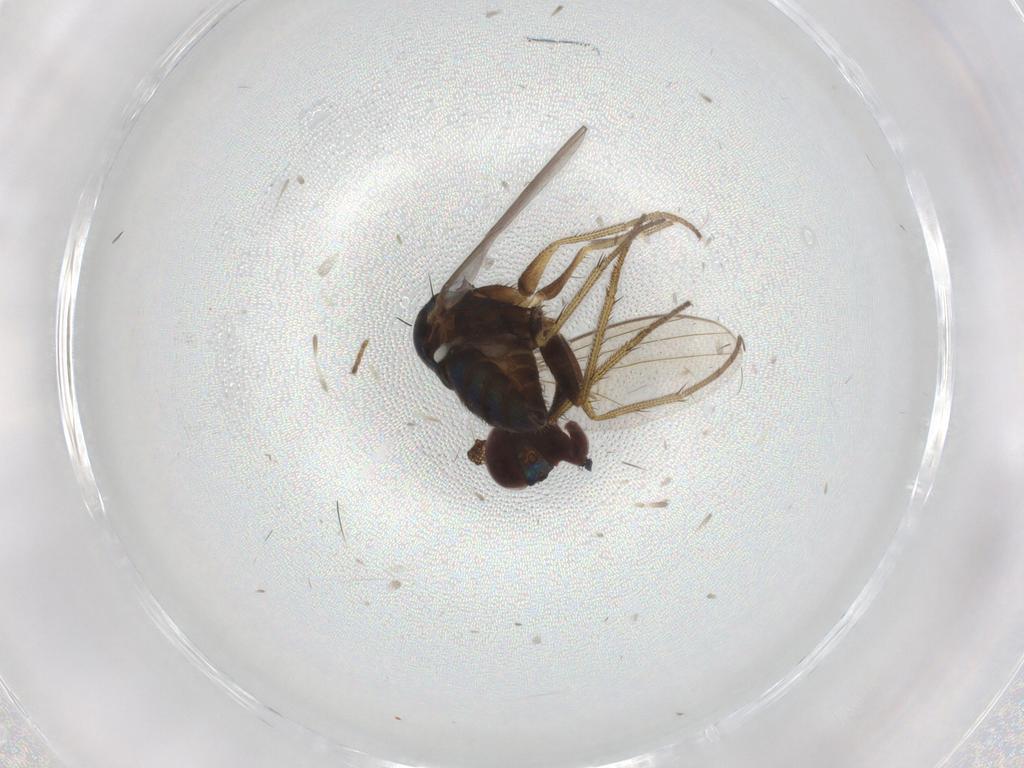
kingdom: Animalia
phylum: Arthropoda
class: Insecta
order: Diptera
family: Dolichopodidae
